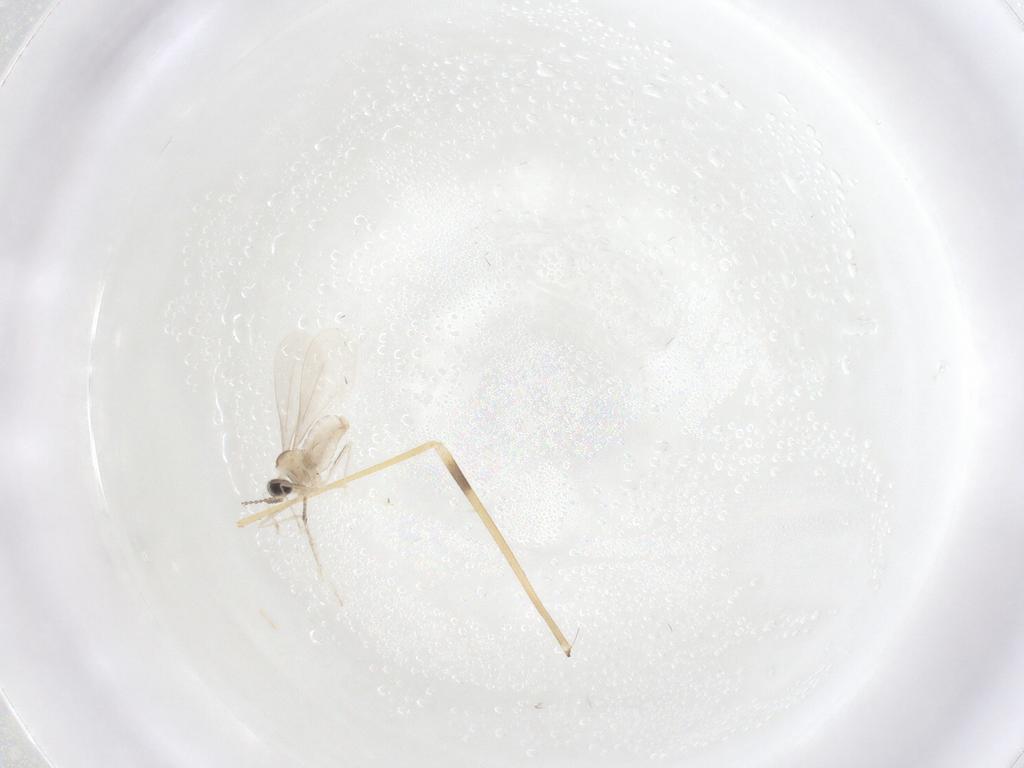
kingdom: Animalia
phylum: Arthropoda
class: Insecta
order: Diptera
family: Cecidomyiidae
